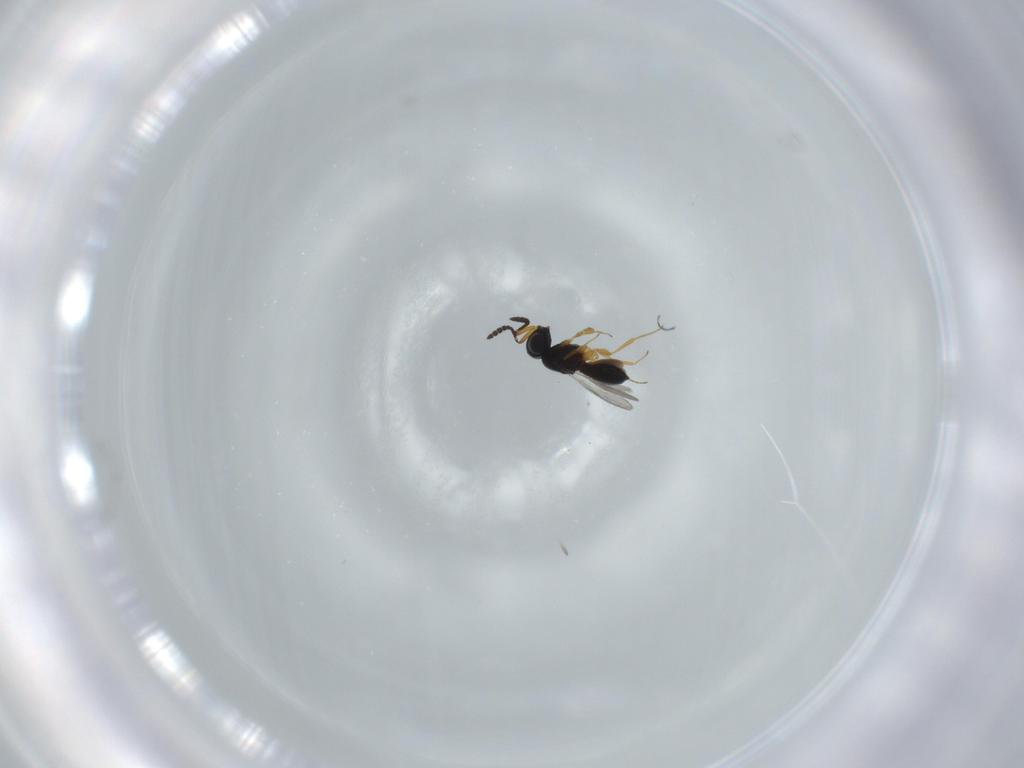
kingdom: Animalia
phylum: Arthropoda
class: Insecta
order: Hymenoptera
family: Scelionidae
